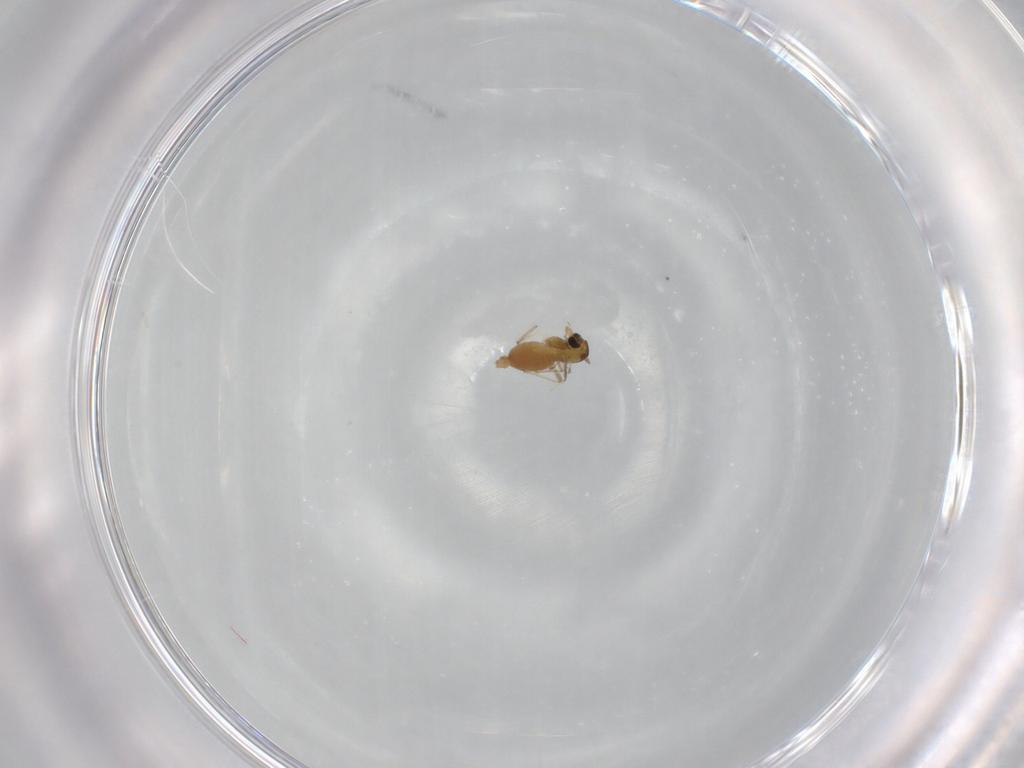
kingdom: Animalia
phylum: Arthropoda
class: Insecta
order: Diptera
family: Chironomidae
